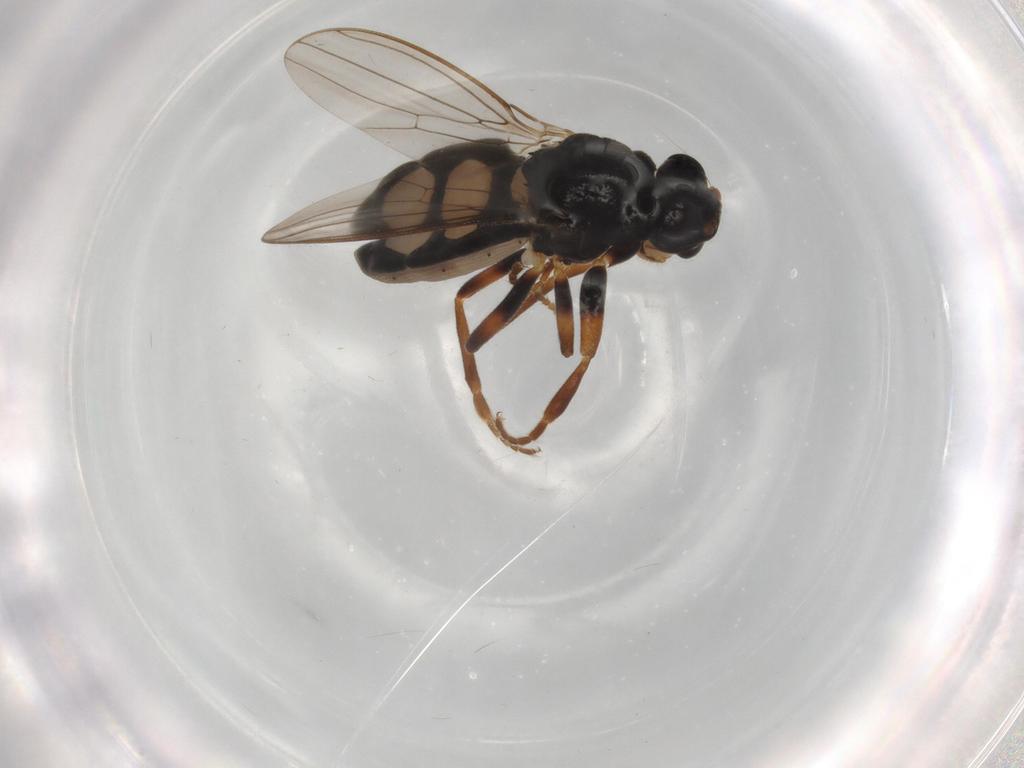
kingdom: Animalia
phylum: Arthropoda
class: Insecta
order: Diptera
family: Sphaeroceridae
